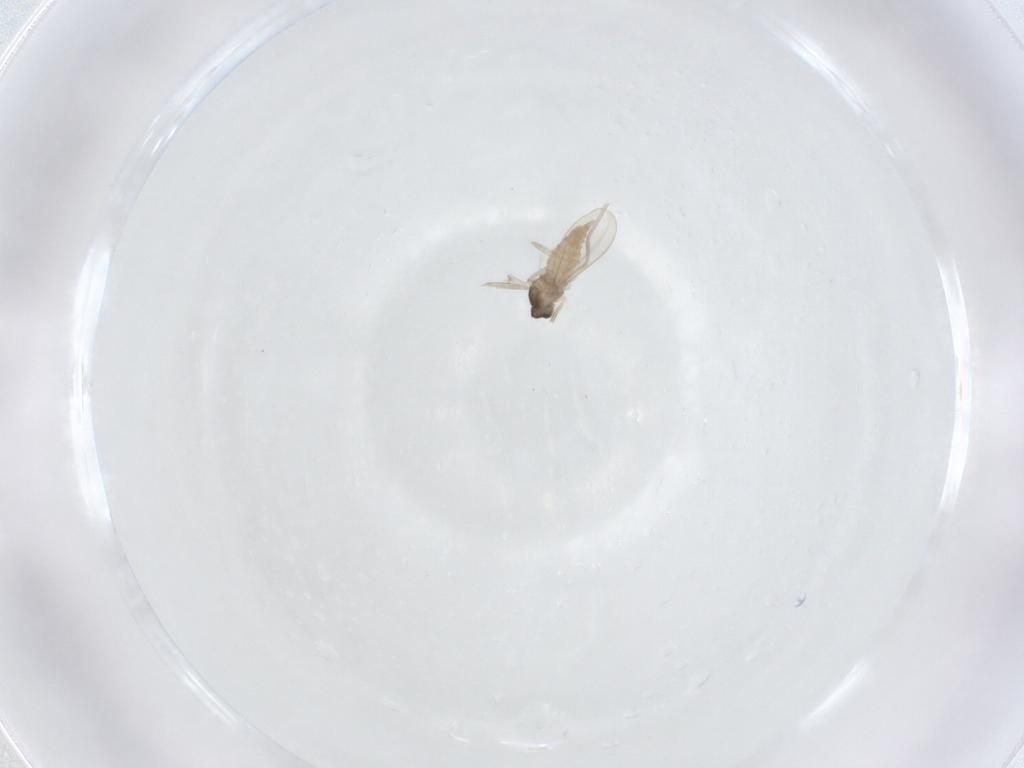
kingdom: Animalia
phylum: Arthropoda
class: Insecta
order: Diptera
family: Cecidomyiidae
